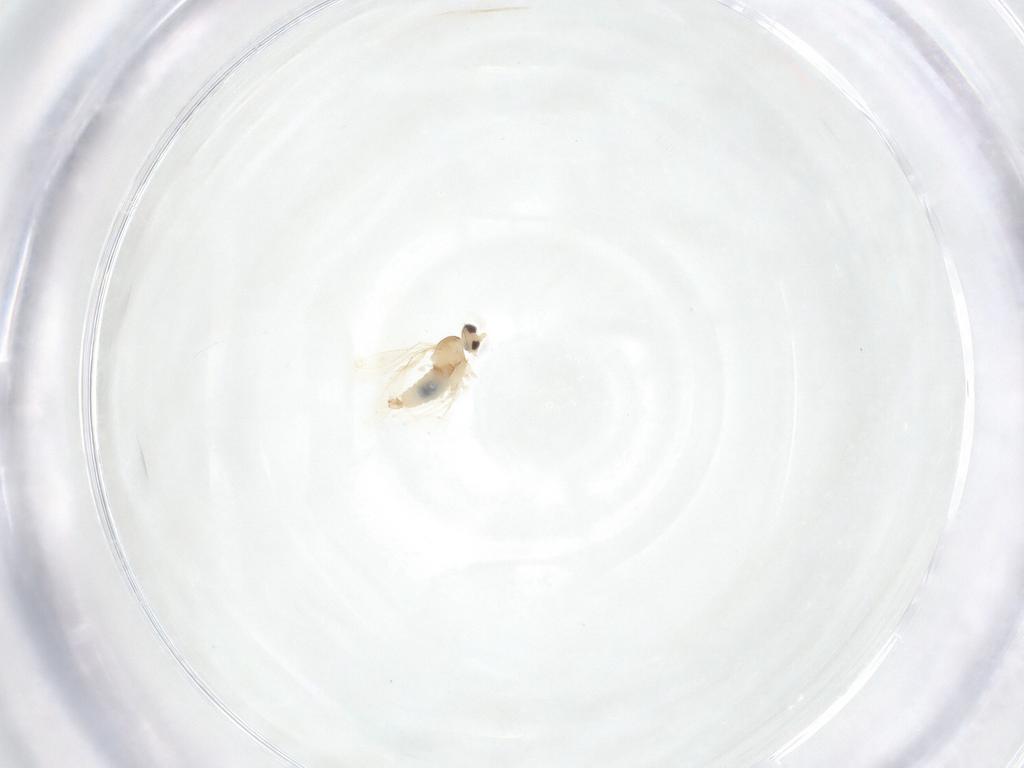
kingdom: Animalia
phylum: Arthropoda
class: Insecta
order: Diptera
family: Cecidomyiidae
